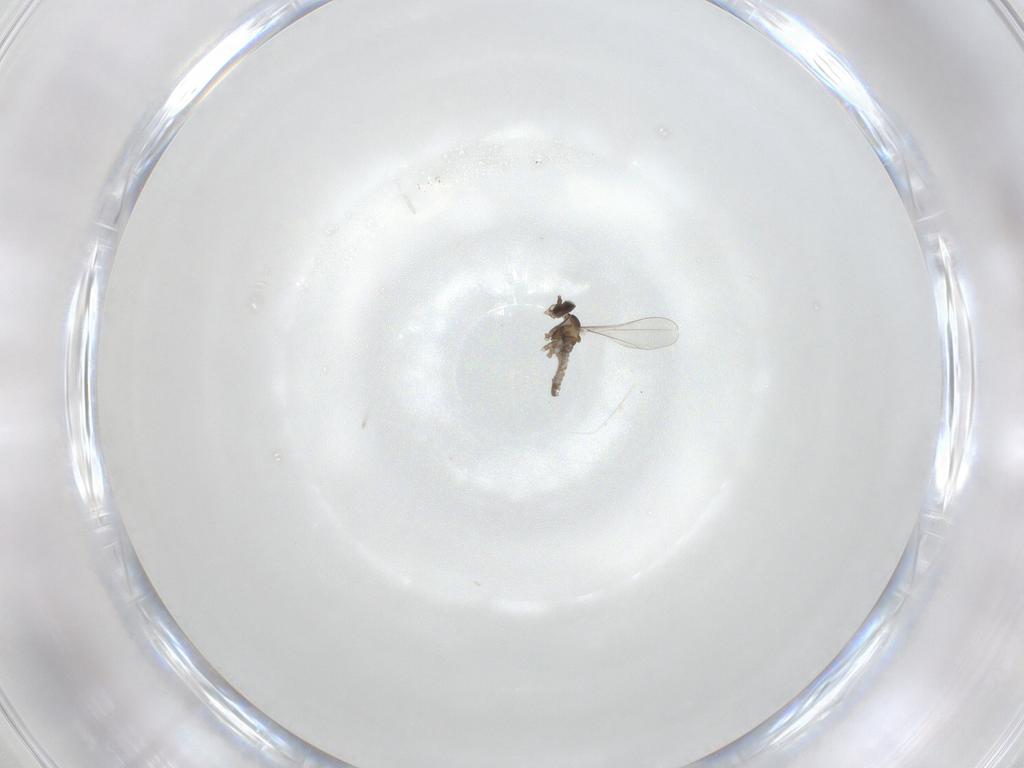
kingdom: Animalia
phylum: Arthropoda
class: Insecta
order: Diptera
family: Cecidomyiidae
